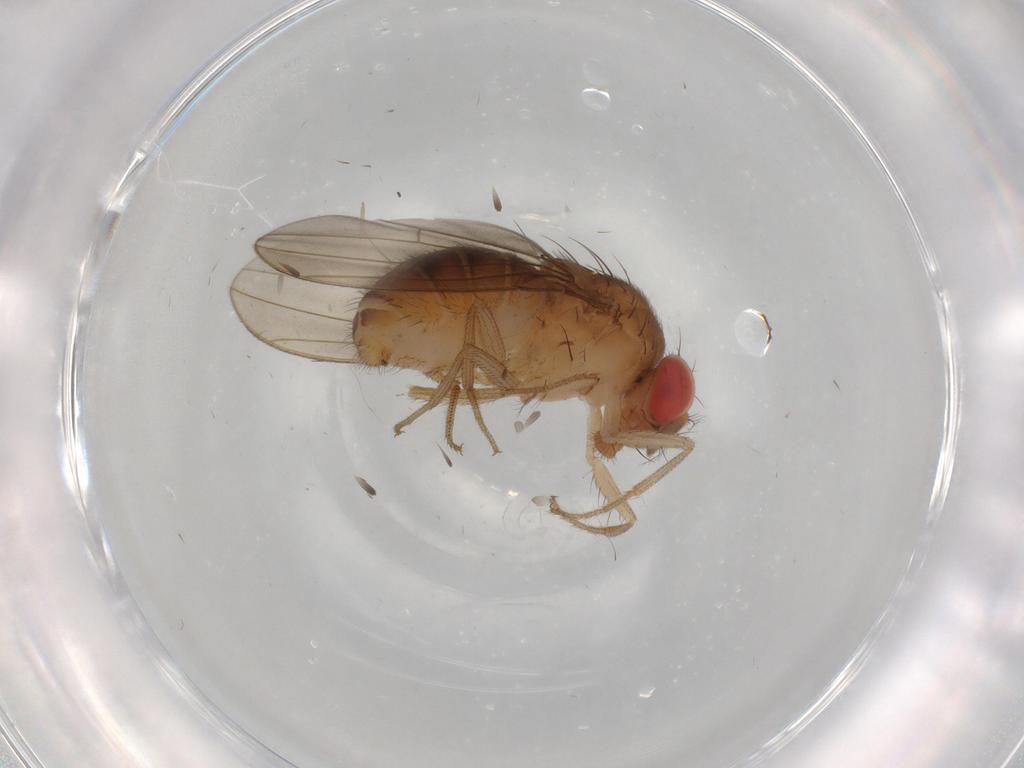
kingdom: Animalia
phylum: Arthropoda
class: Insecta
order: Diptera
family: Drosophilidae
